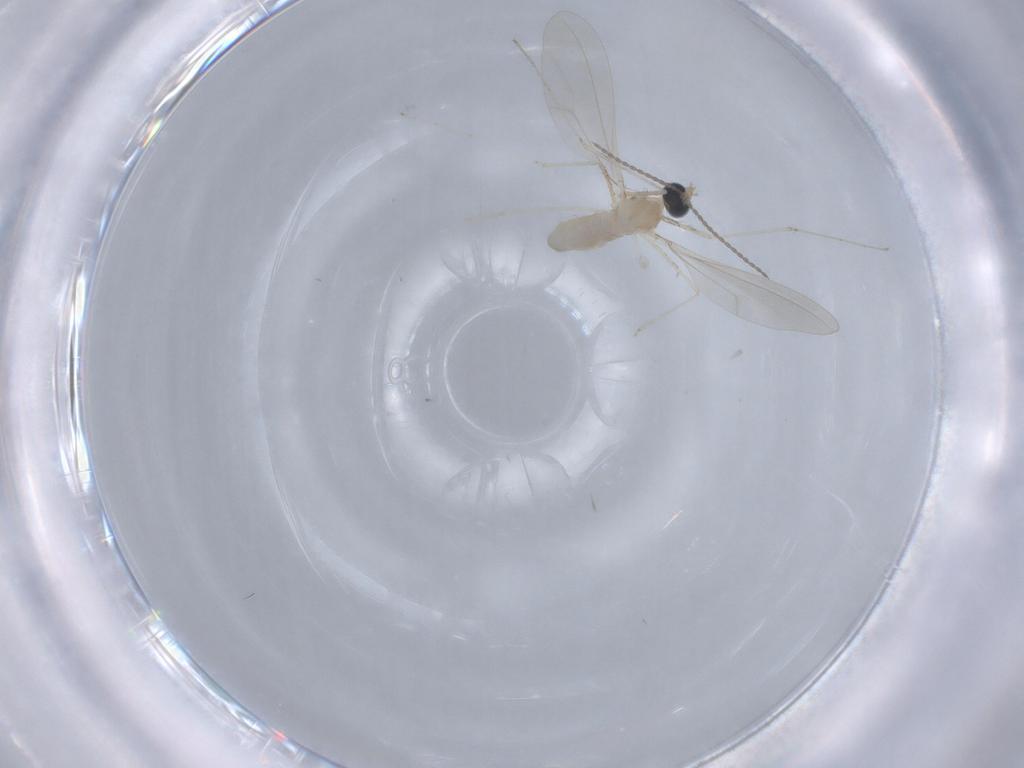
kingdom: Animalia
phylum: Arthropoda
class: Insecta
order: Diptera
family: Cecidomyiidae
